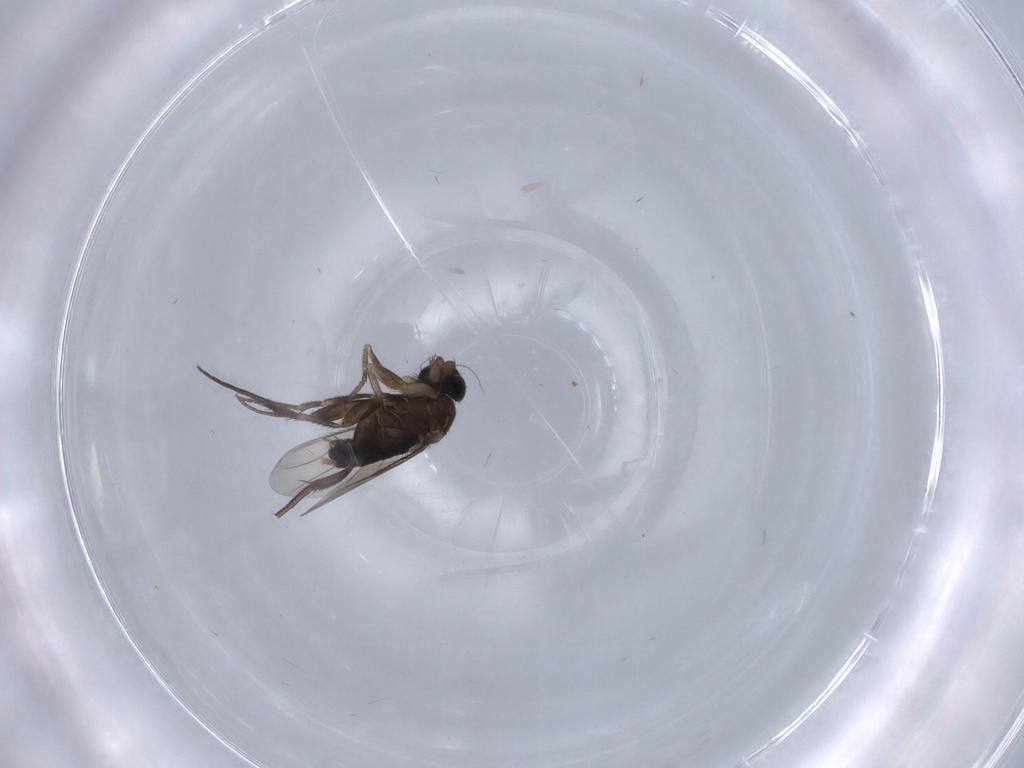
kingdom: Animalia
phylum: Arthropoda
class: Insecta
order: Diptera
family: Phoridae
